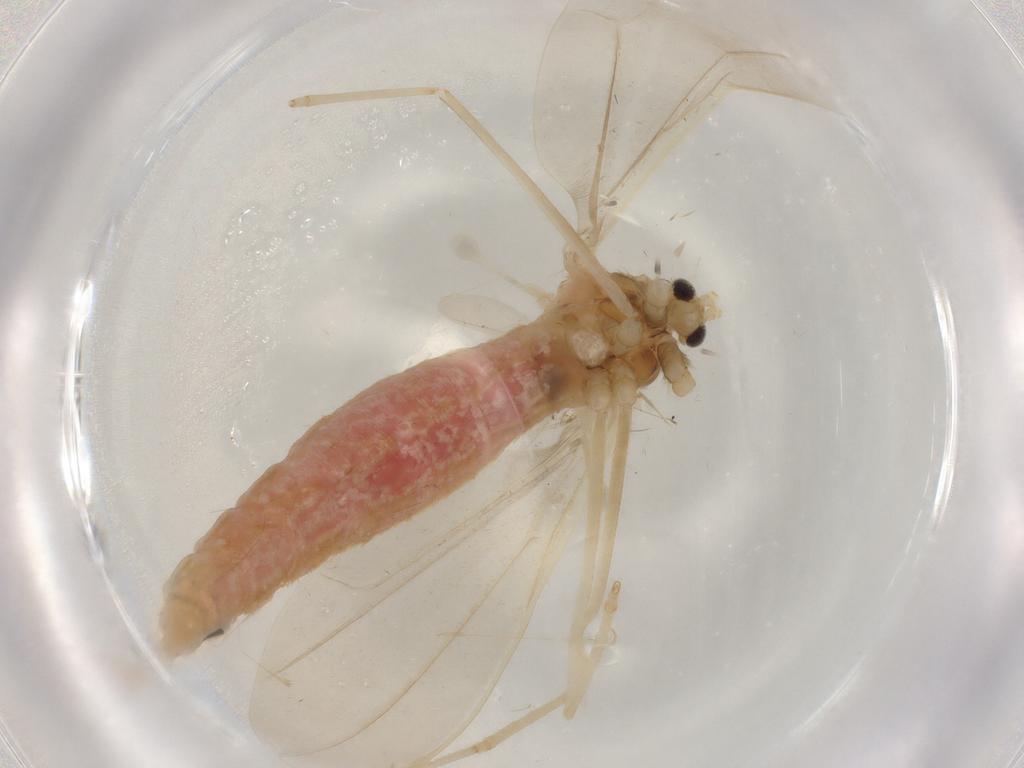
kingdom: Animalia
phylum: Arthropoda
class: Insecta
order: Diptera
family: Cecidomyiidae
